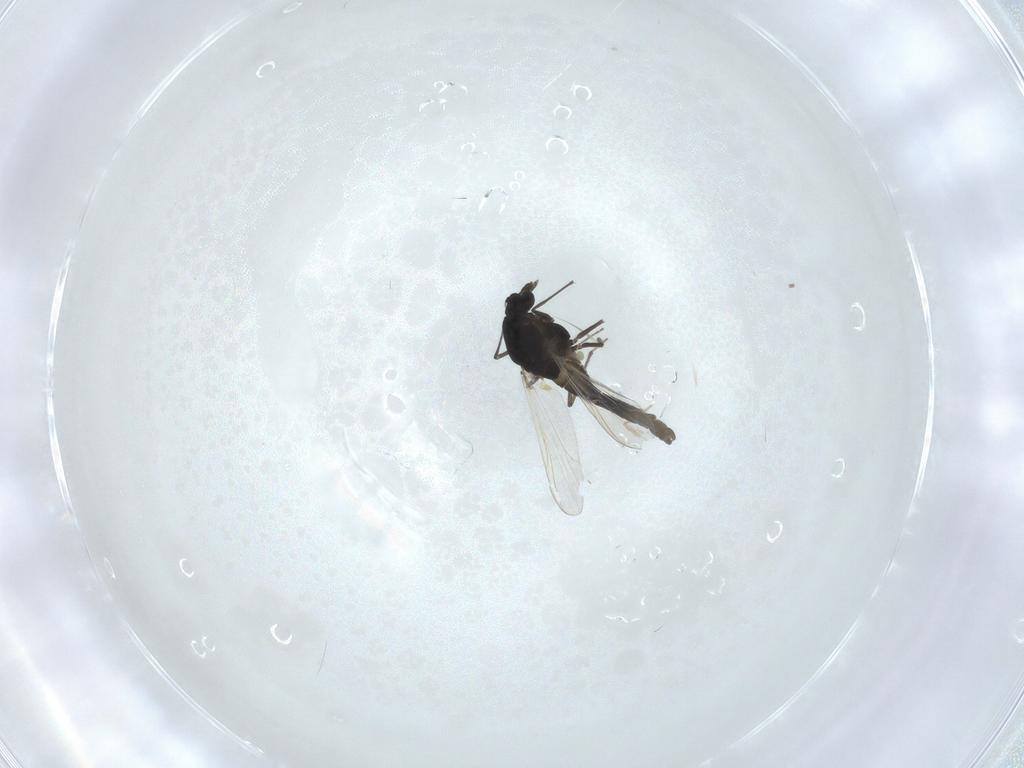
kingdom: Animalia
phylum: Arthropoda
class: Insecta
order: Diptera
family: Chironomidae
